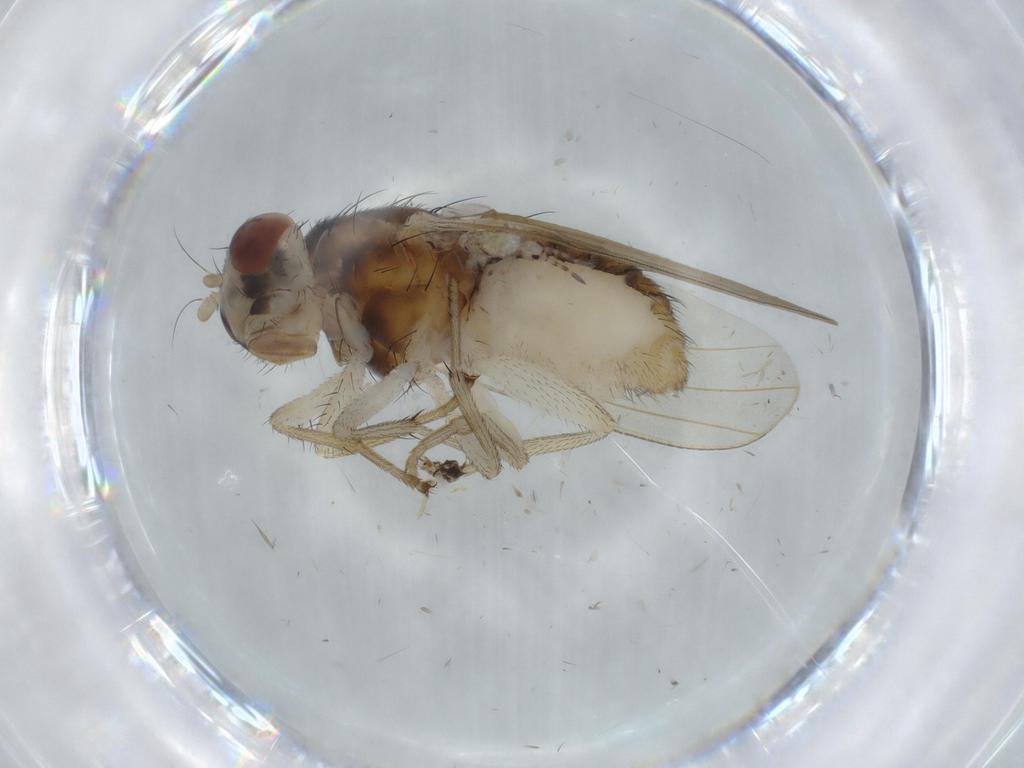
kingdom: Animalia
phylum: Arthropoda
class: Insecta
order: Diptera
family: Lauxaniidae
